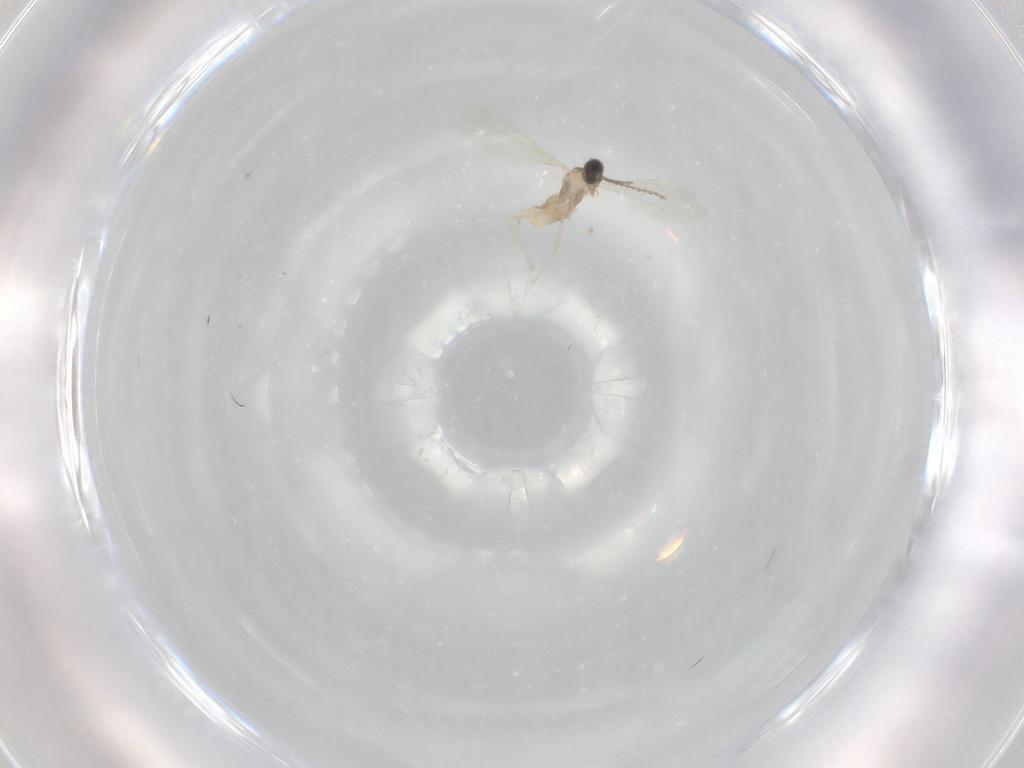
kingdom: Animalia
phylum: Arthropoda
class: Insecta
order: Diptera
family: Cecidomyiidae
